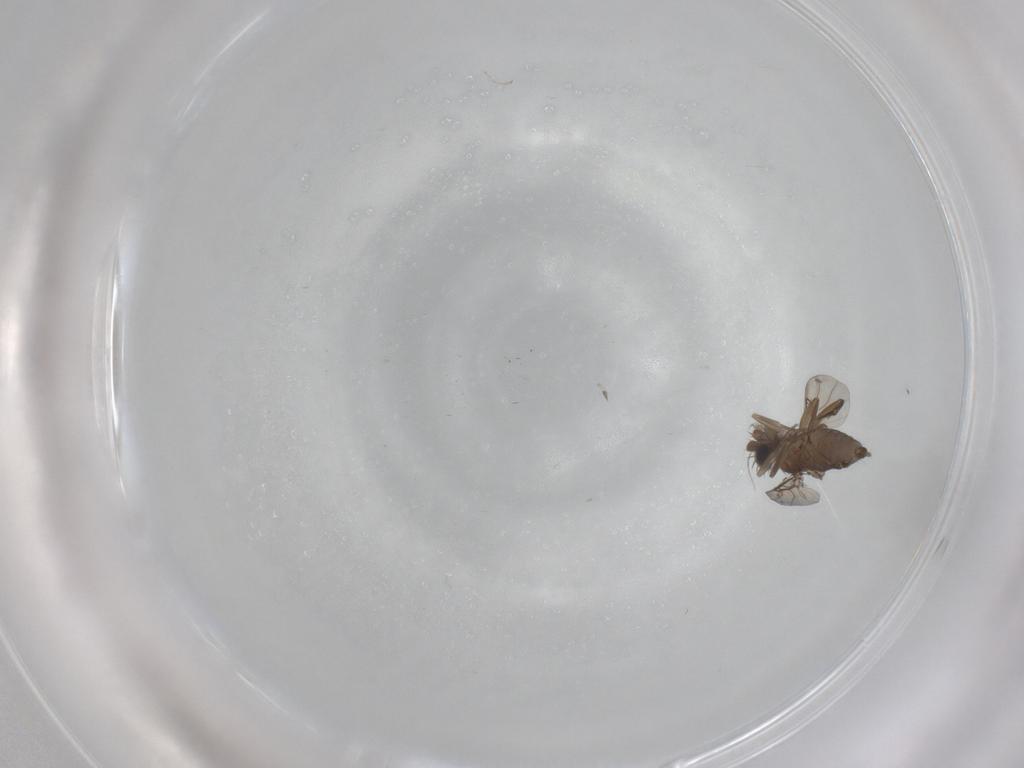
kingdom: Animalia
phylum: Arthropoda
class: Insecta
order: Diptera
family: Phoridae
